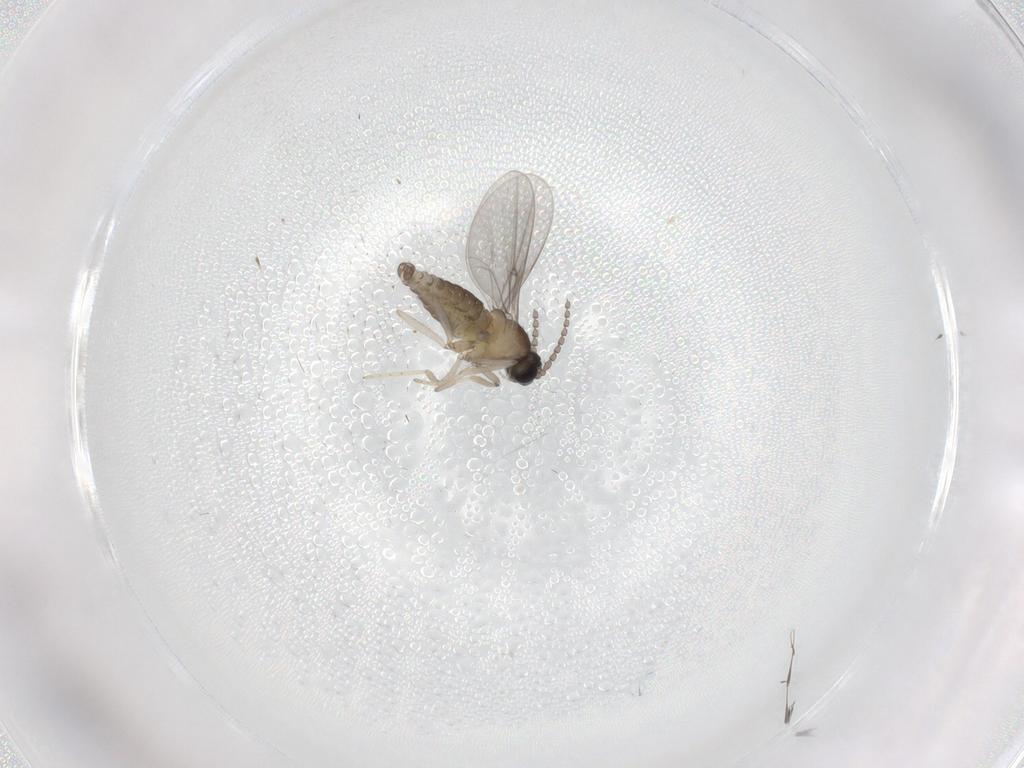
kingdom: Animalia
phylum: Arthropoda
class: Insecta
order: Diptera
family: Cecidomyiidae
